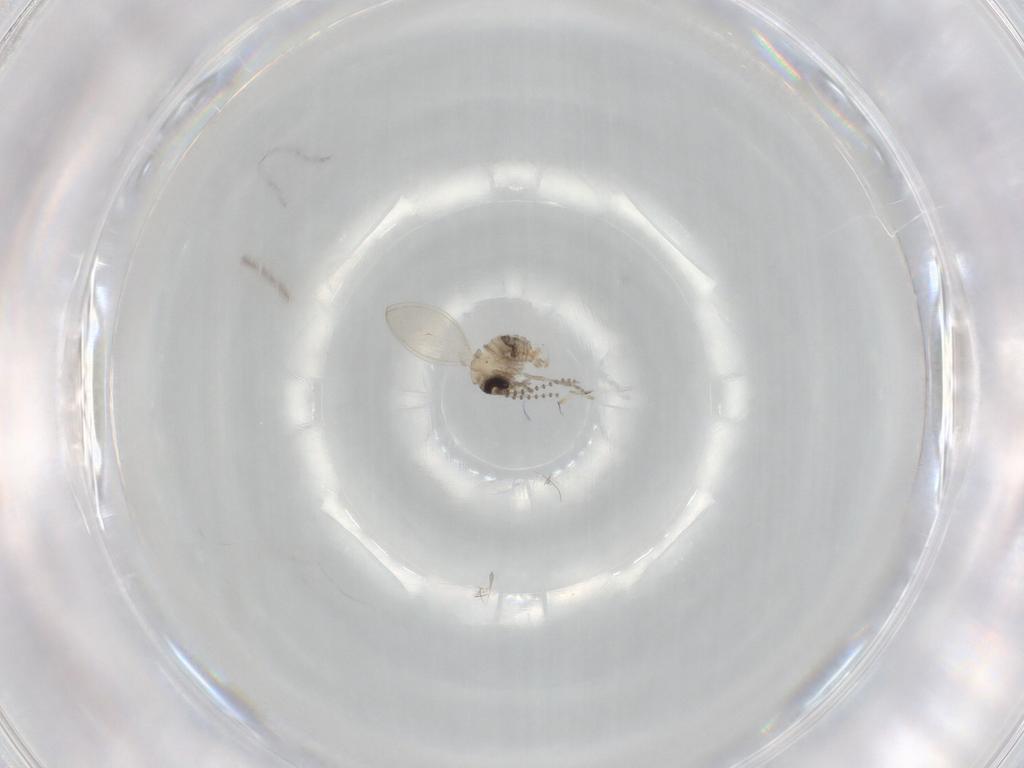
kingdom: Animalia
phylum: Arthropoda
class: Insecta
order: Diptera
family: Psychodidae
